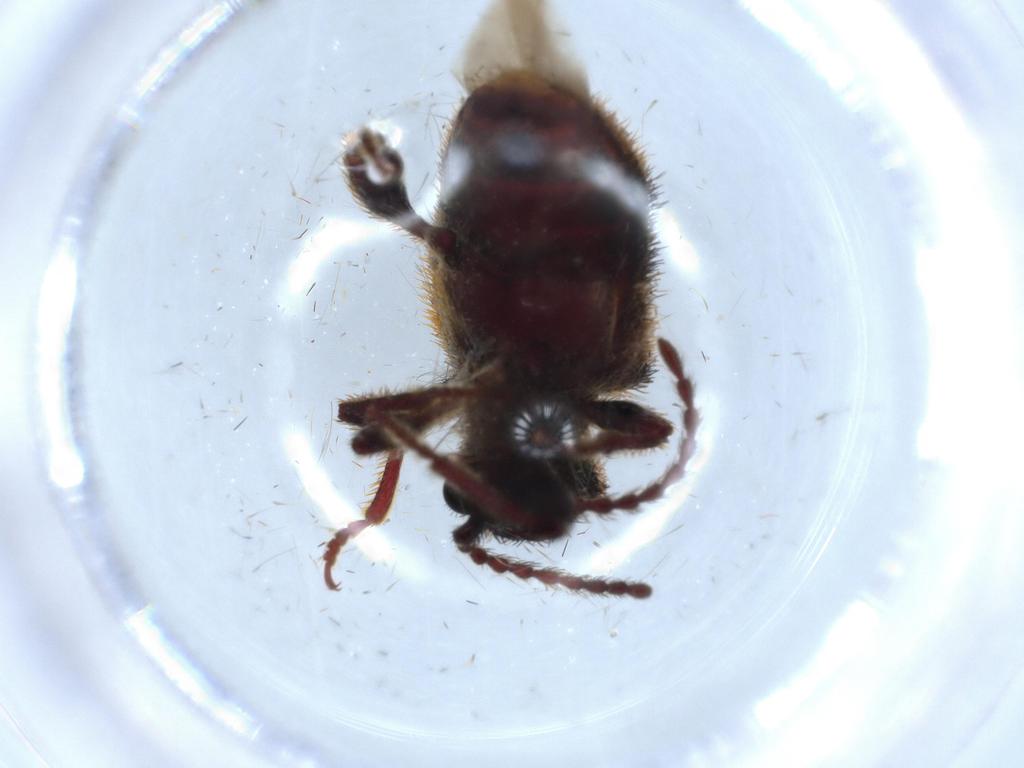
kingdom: Animalia
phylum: Arthropoda
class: Insecta
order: Coleoptera
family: Ptinidae
